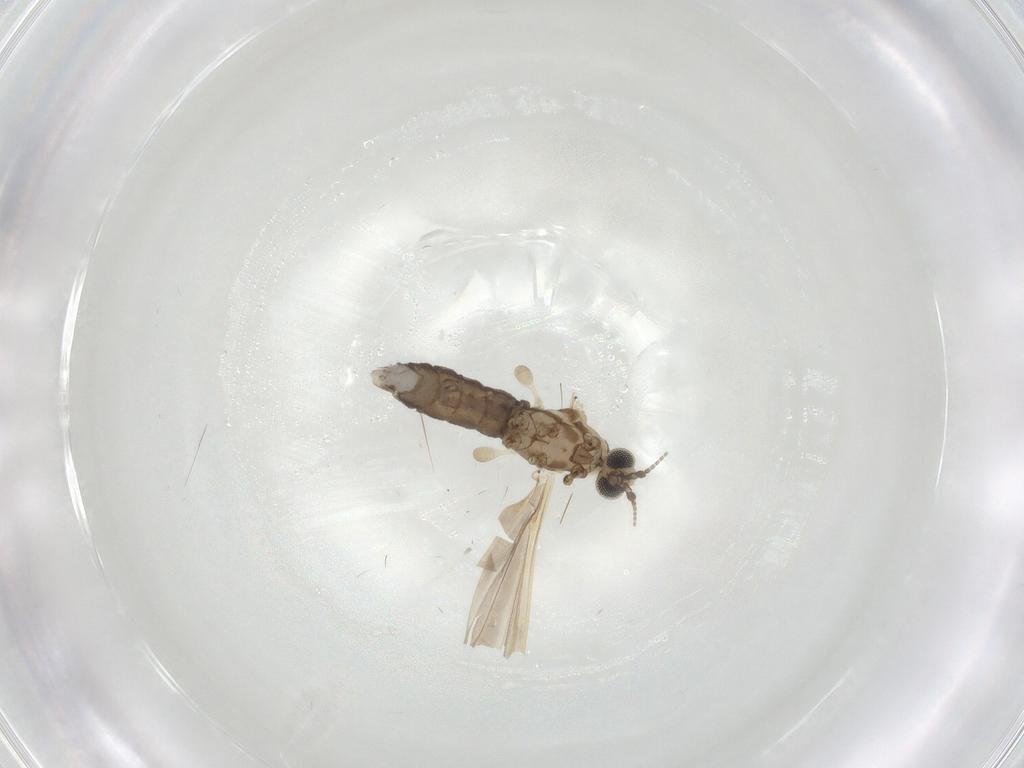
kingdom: Animalia
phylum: Arthropoda
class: Insecta
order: Diptera
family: Limoniidae
